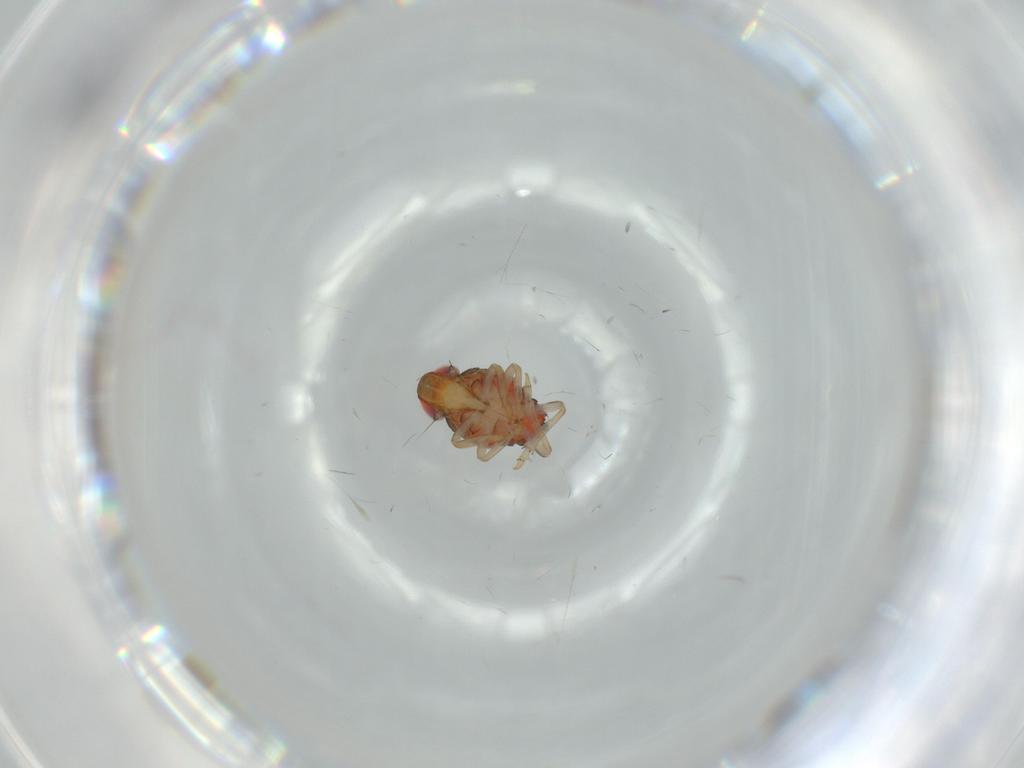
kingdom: Animalia
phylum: Arthropoda
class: Insecta
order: Hemiptera
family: Issidae
